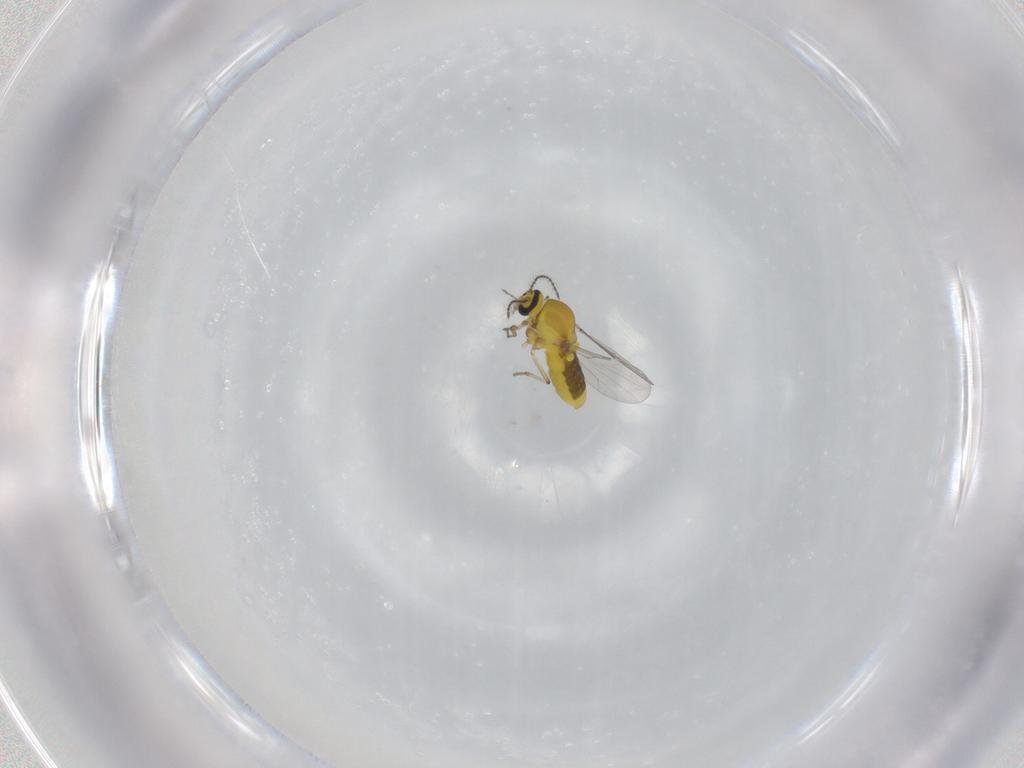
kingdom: Animalia
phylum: Arthropoda
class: Insecta
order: Diptera
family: Ceratopogonidae
